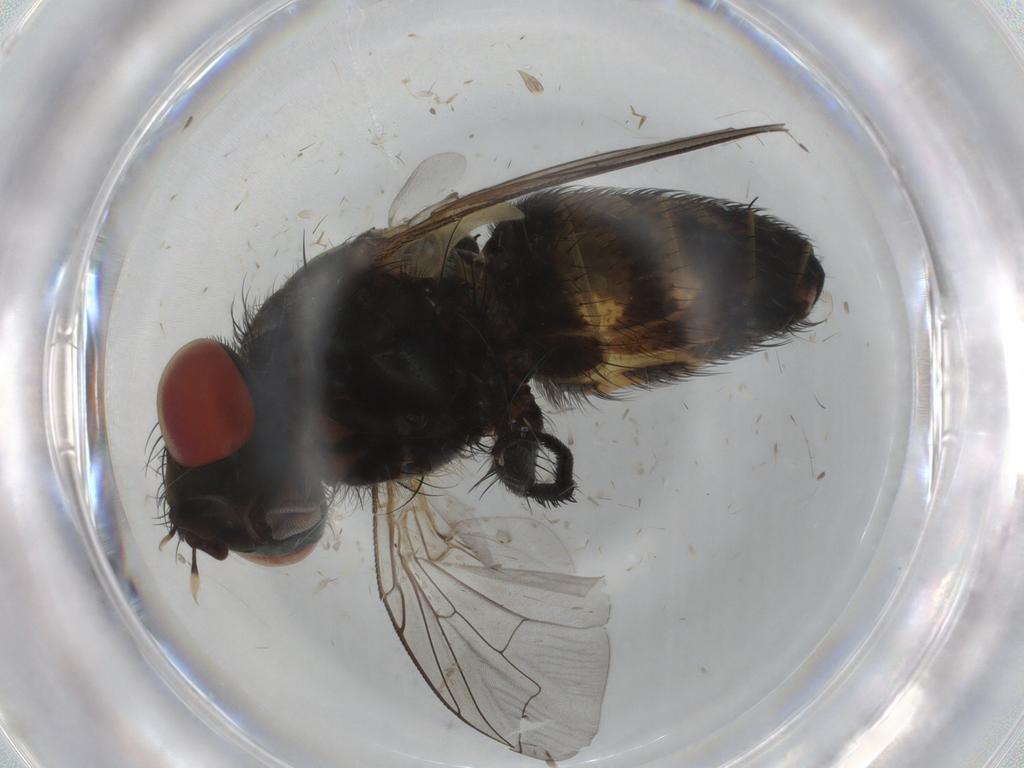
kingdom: Animalia
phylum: Arthropoda
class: Insecta
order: Diptera
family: Sarcophagidae
